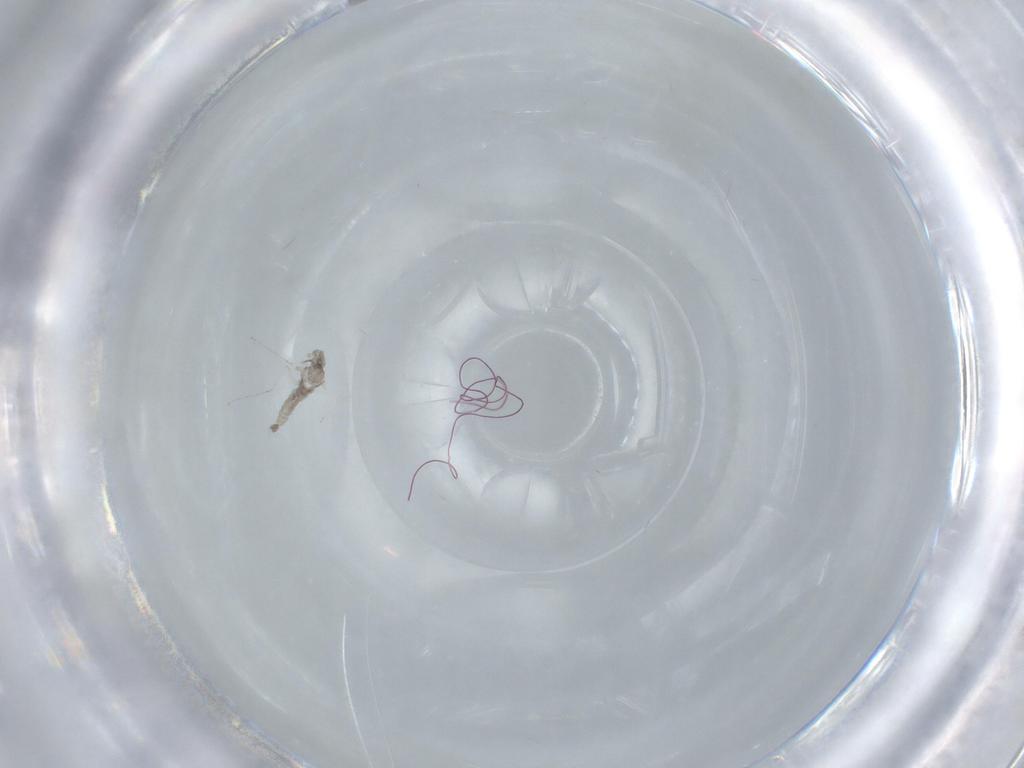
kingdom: Animalia
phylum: Arthropoda
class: Insecta
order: Diptera
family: Cecidomyiidae
